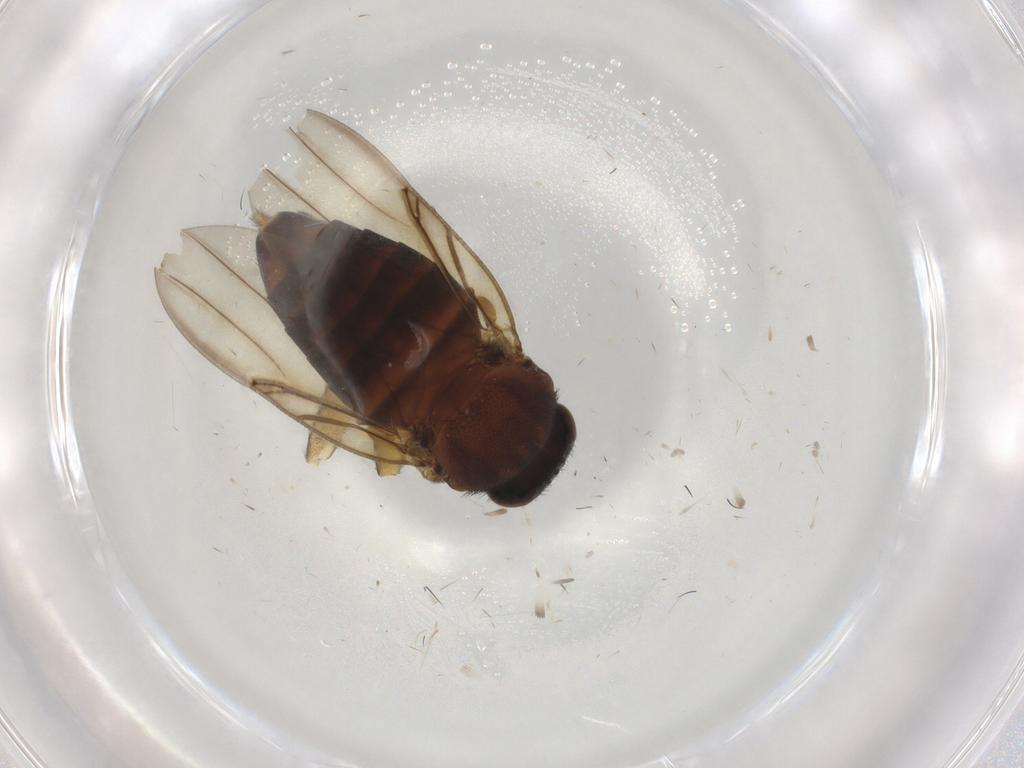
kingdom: Animalia
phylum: Arthropoda
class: Insecta
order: Diptera
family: Phoridae
